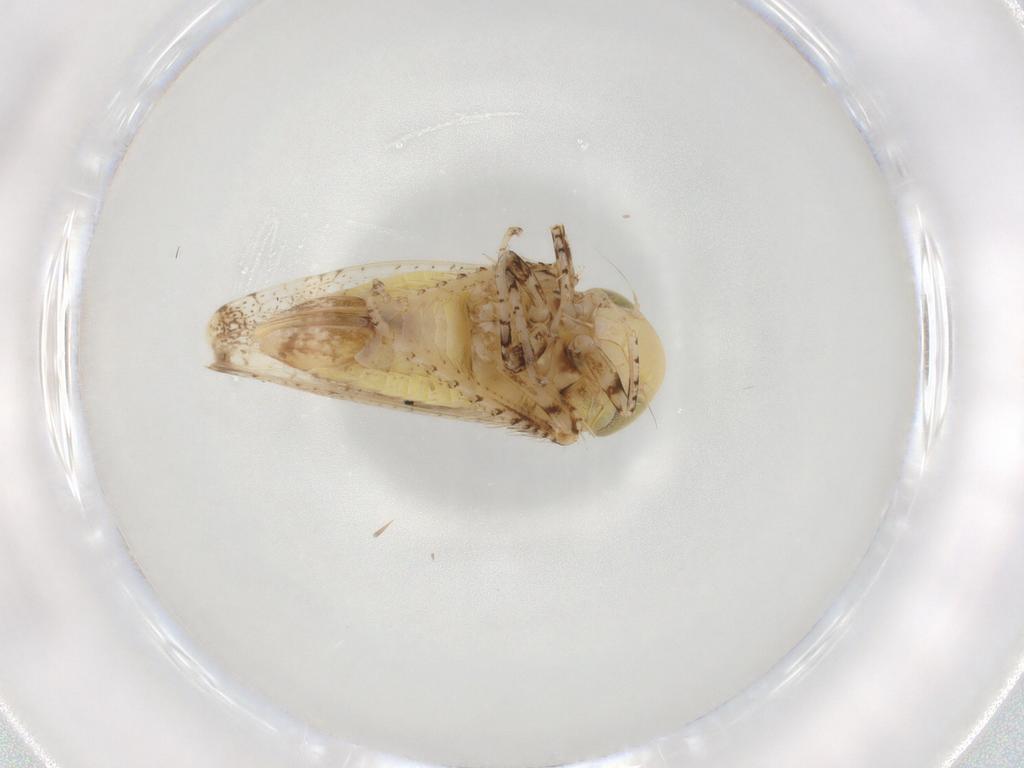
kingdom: Animalia
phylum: Arthropoda
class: Insecta
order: Hemiptera
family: Cicadellidae
